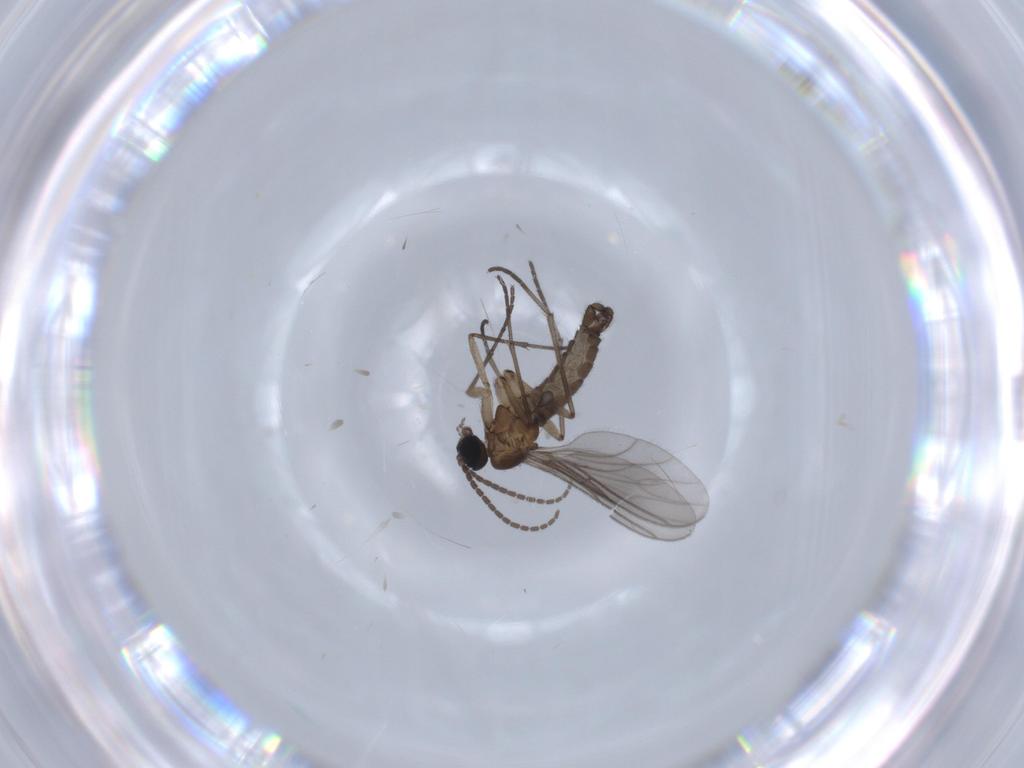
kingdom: Animalia
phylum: Arthropoda
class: Insecta
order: Diptera
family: Sciaridae
